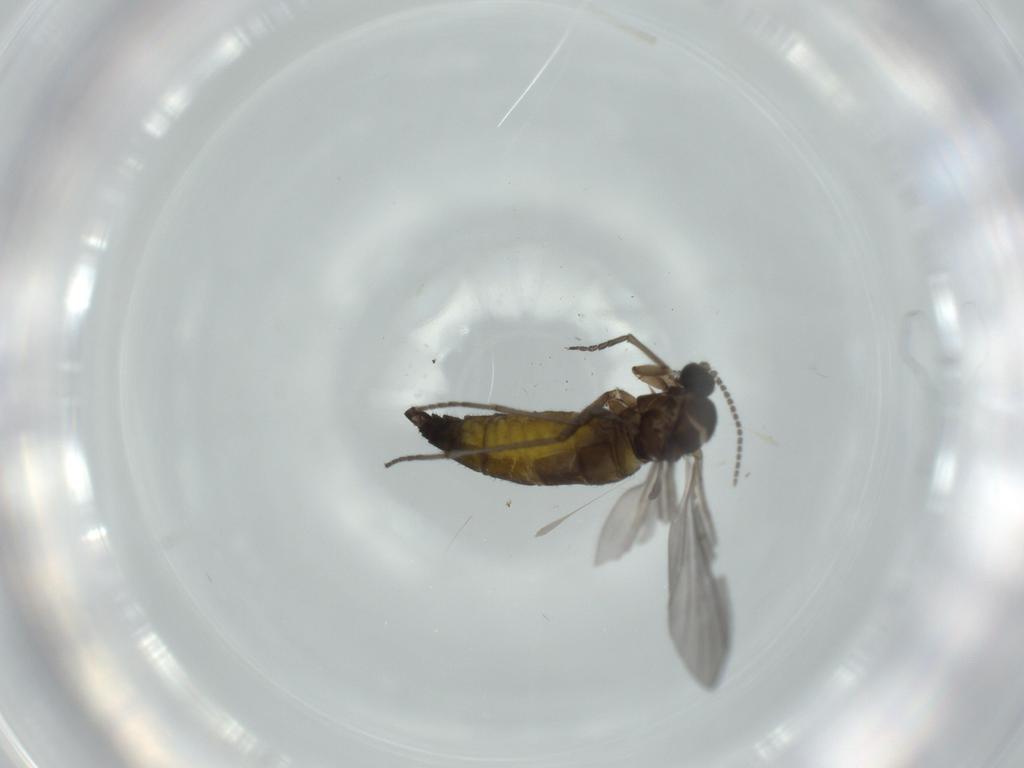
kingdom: Animalia
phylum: Arthropoda
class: Insecta
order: Diptera
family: Sciaridae
